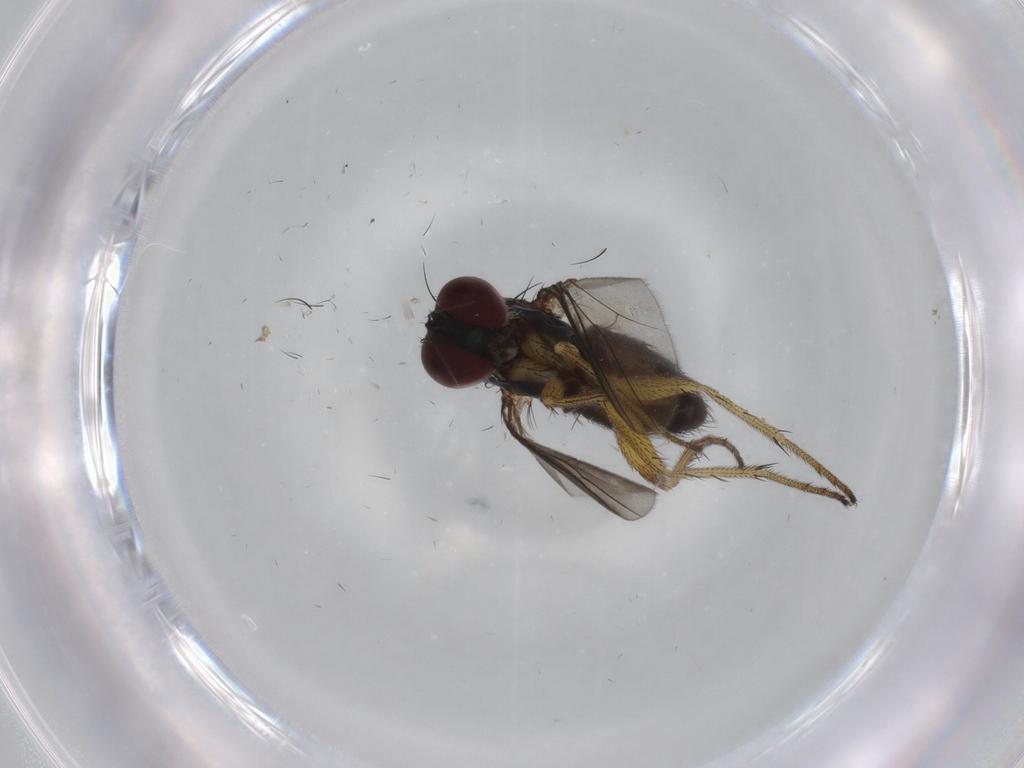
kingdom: Animalia
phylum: Arthropoda
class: Insecta
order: Diptera
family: Dolichopodidae
